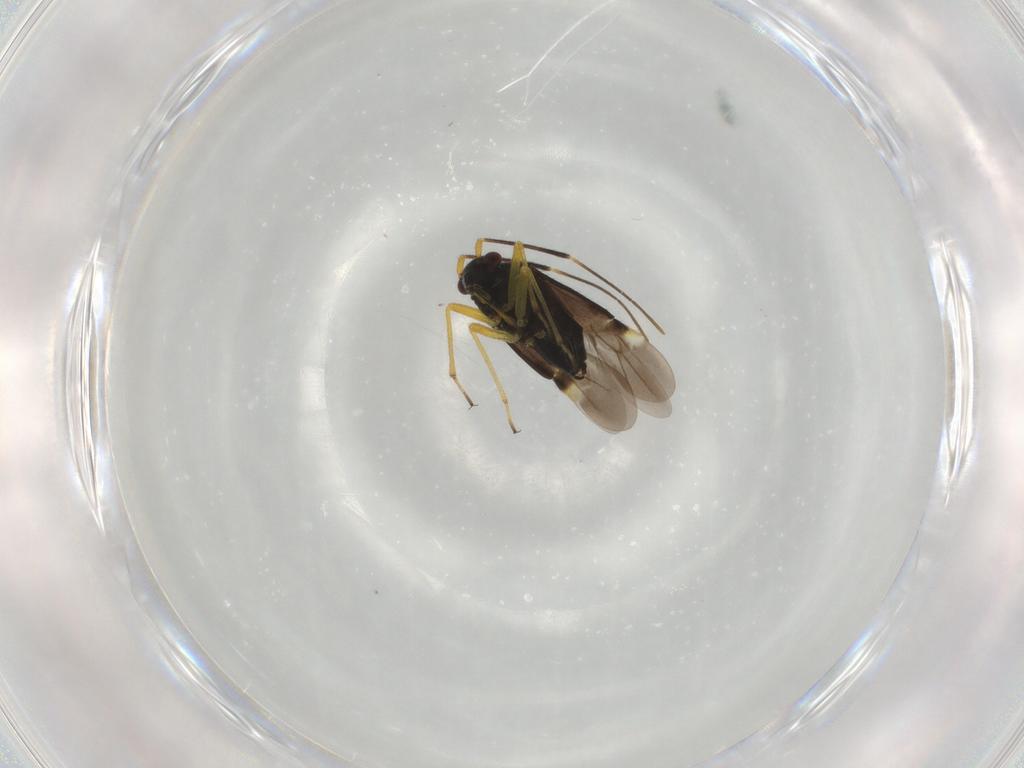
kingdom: Animalia
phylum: Arthropoda
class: Insecta
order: Hemiptera
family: Miridae
